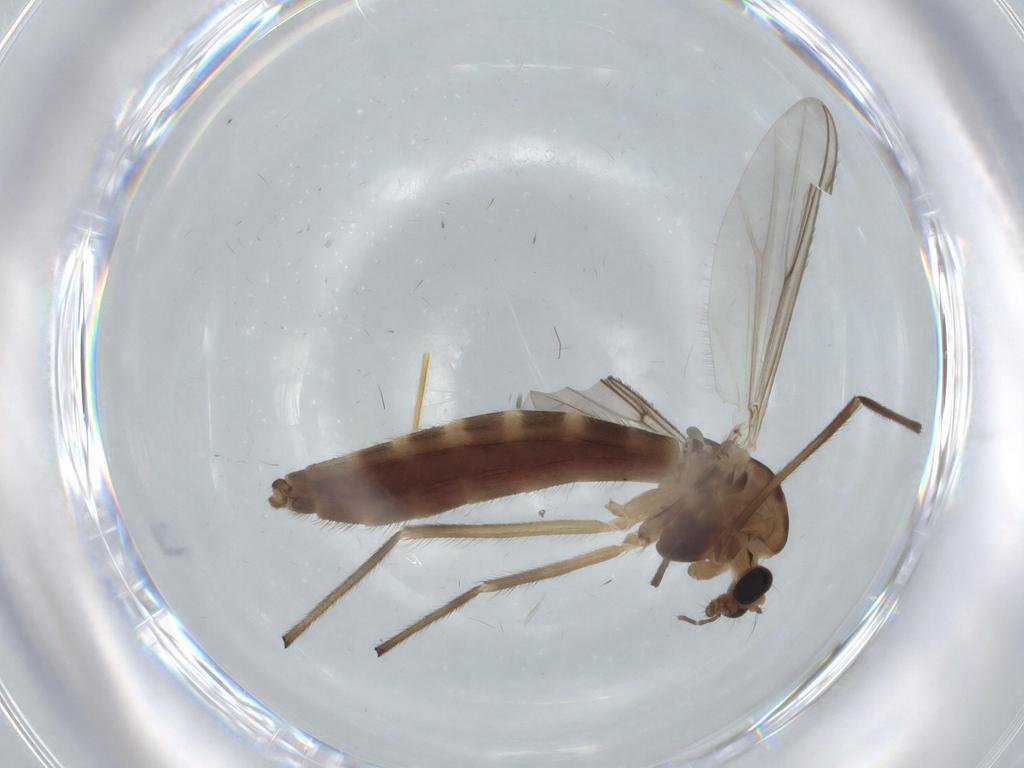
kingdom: Animalia
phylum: Arthropoda
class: Insecta
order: Diptera
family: Chironomidae
